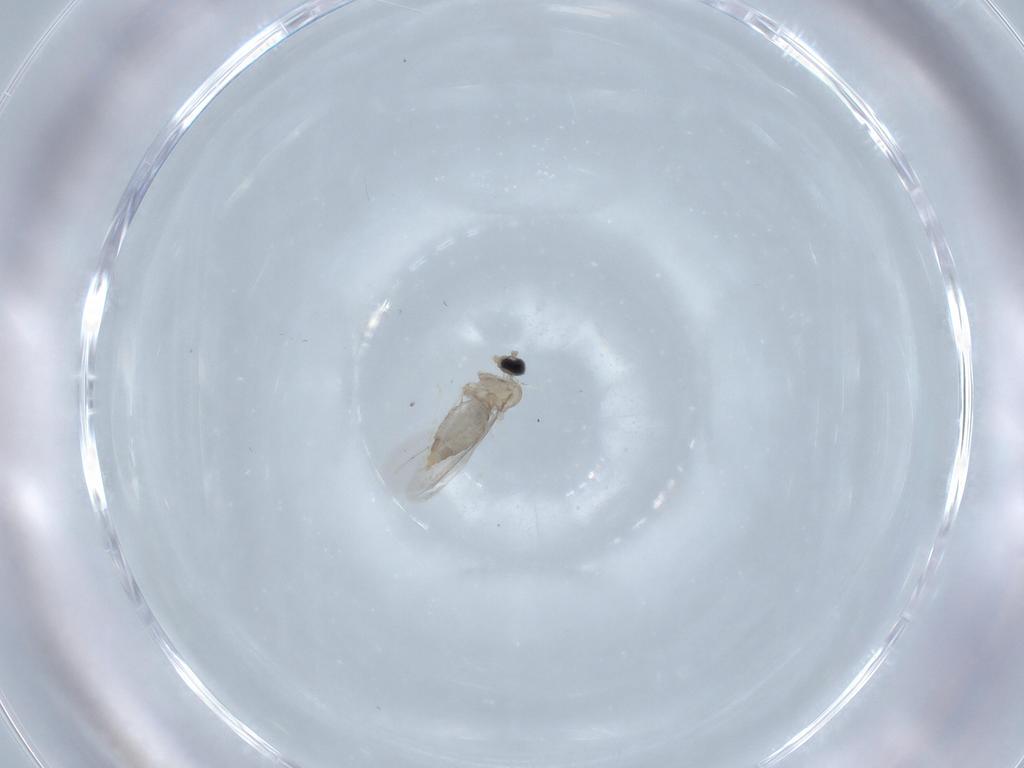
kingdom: Animalia
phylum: Arthropoda
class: Insecta
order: Diptera
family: Cecidomyiidae
